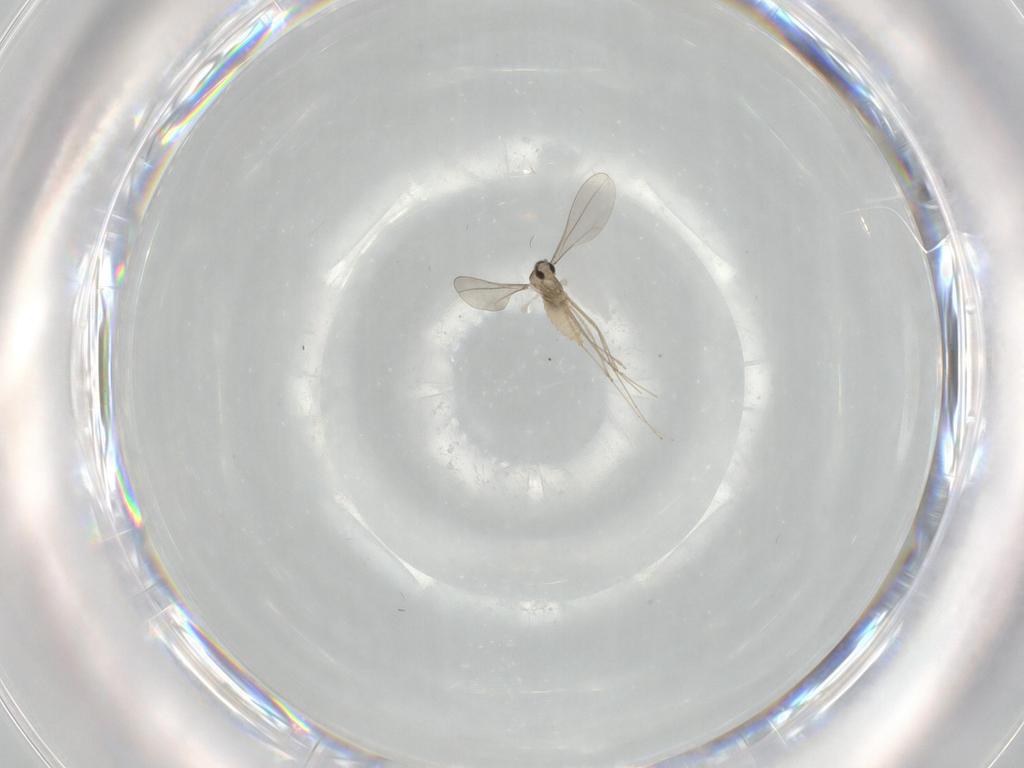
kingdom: Animalia
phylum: Arthropoda
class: Insecta
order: Diptera
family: Chironomidae
